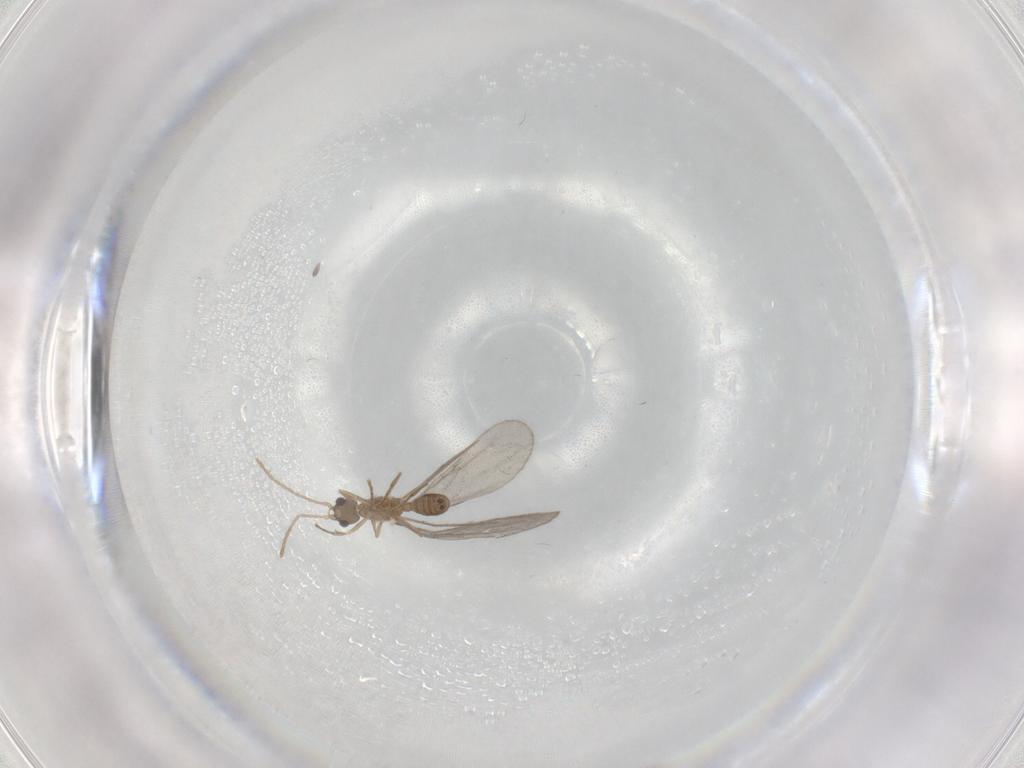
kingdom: Animalia
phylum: Arthropoda
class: Insecta
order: Hymenoptera
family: Formicidae
